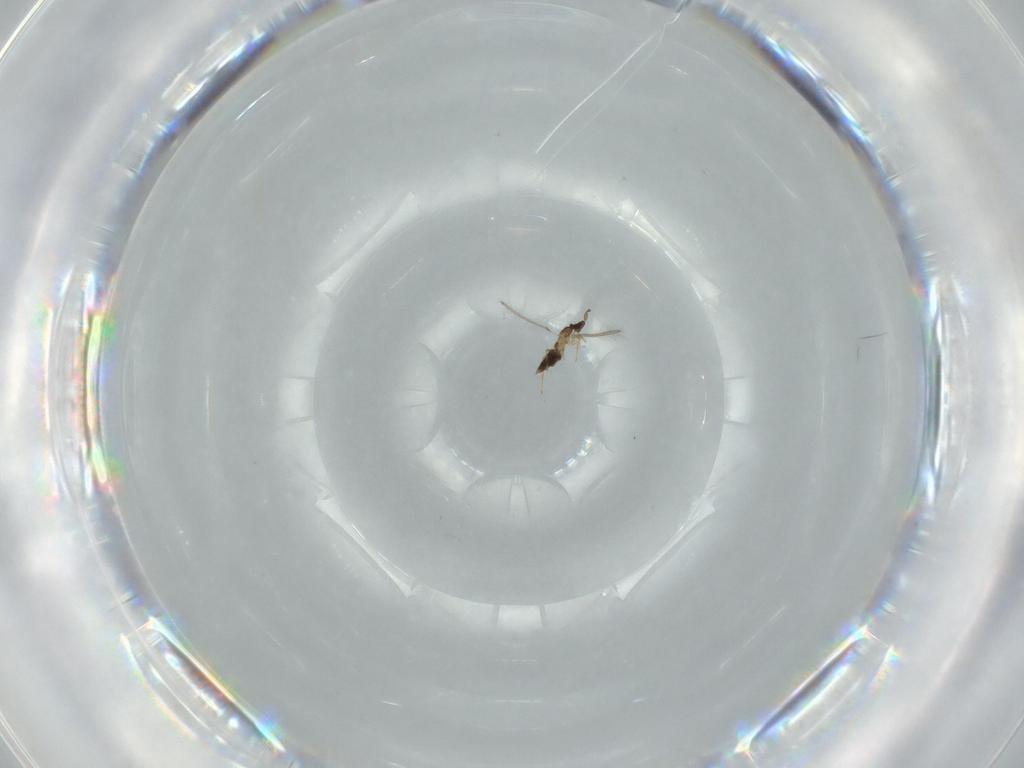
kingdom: Animalia
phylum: Arthropoda
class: Insecta
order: Hymenoptera
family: Mymaridae
